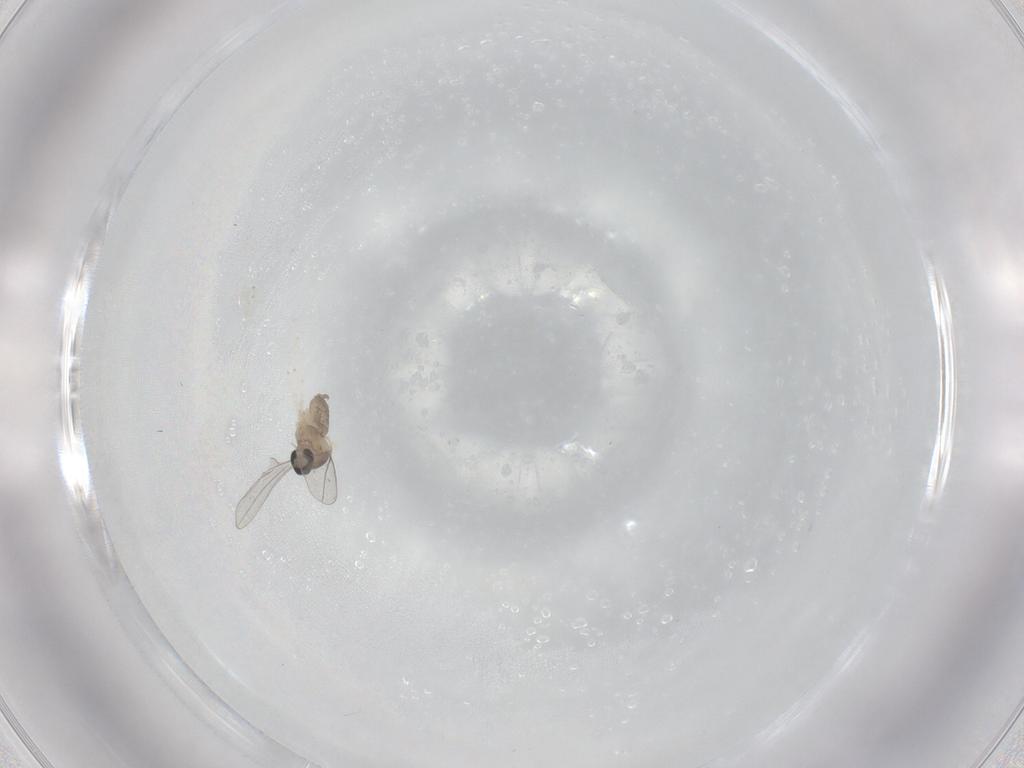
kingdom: Animalia
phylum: Arthropoda
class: Insecta
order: Diptera
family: Cecidomyiidae
